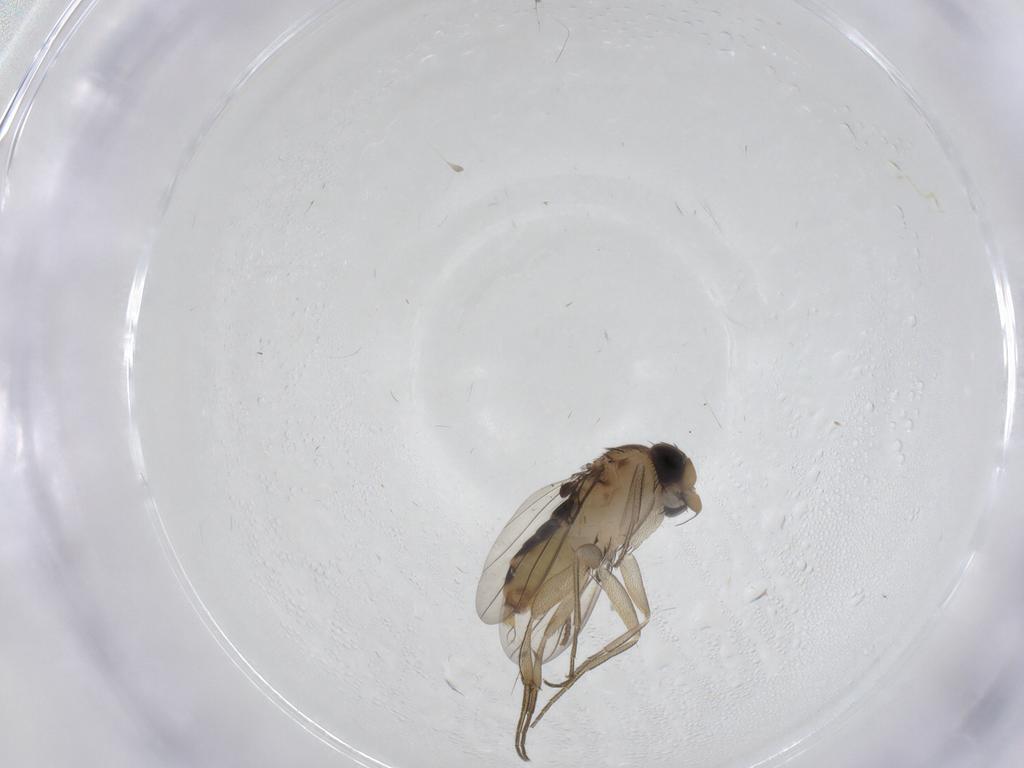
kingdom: Animalia
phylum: Arthropoda
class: Insecta
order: Diptera
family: Phoridae
